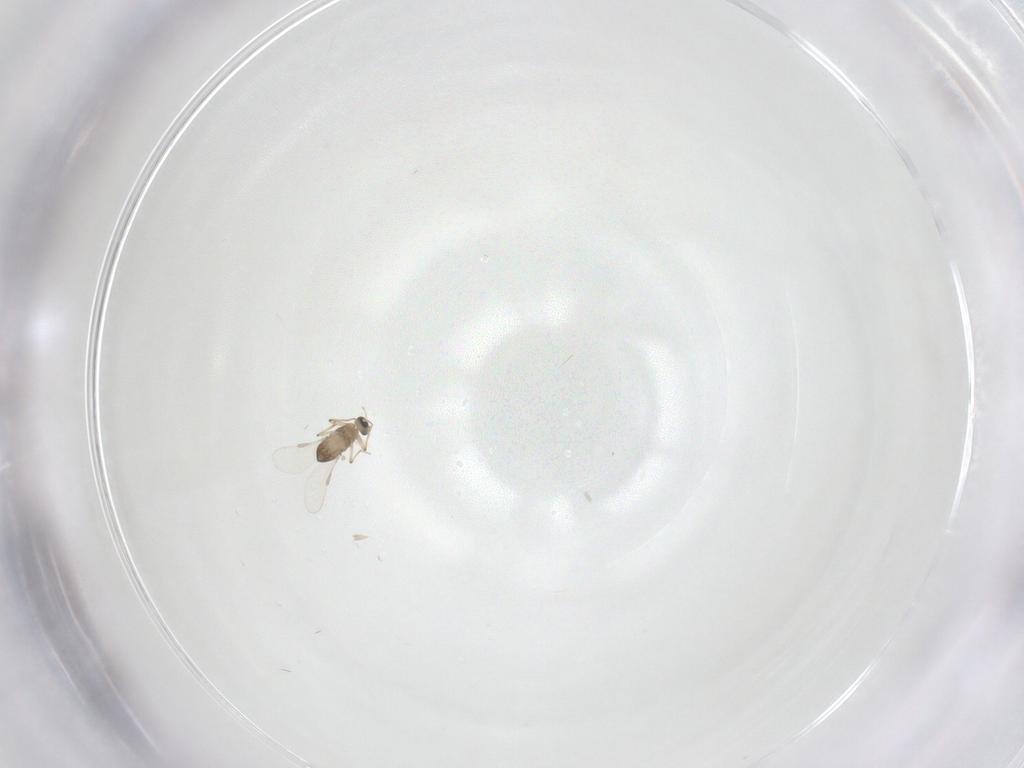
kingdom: Animalia
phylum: Arthropoda
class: Insecta
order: Diptera
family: Chironomidae
